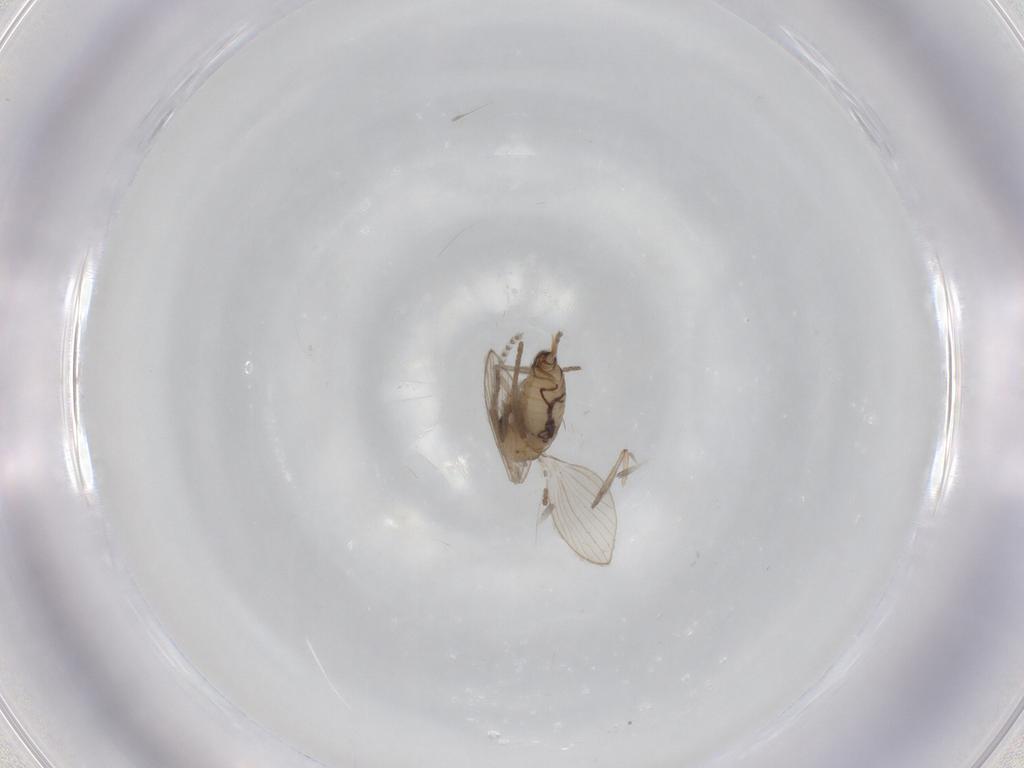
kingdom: Animalia
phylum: Arthropoda
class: Insecta
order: Diptera
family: Psychodidae
